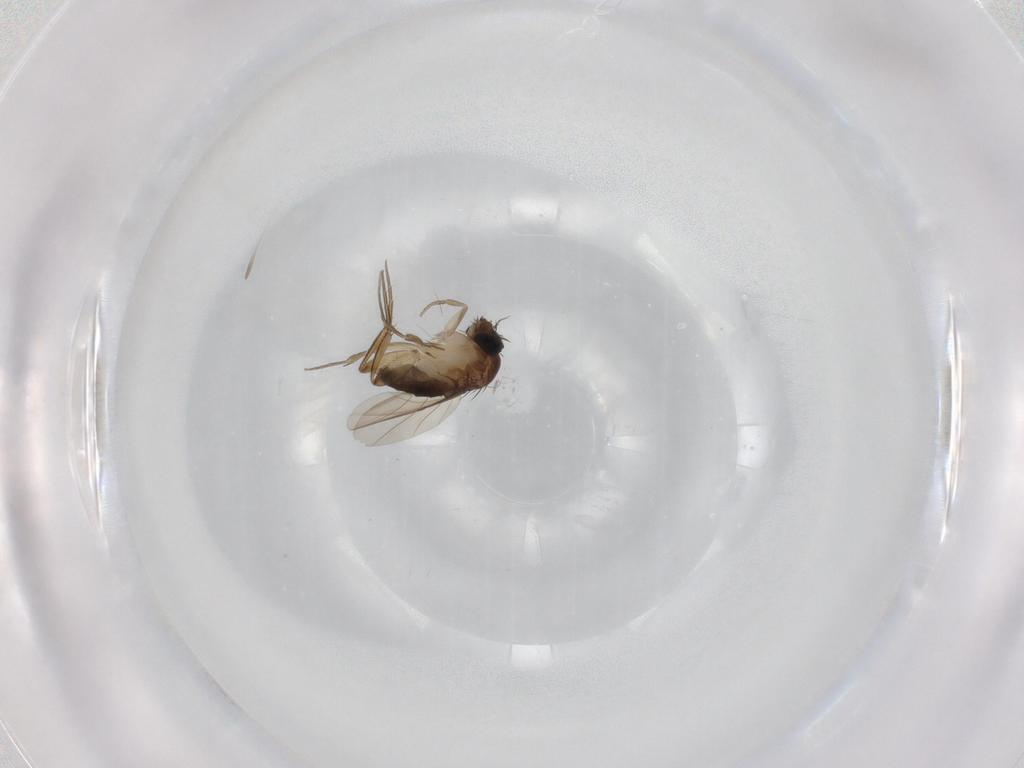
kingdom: Animalia
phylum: Arthropoda
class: Insecta
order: Diptera
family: Phoridae
